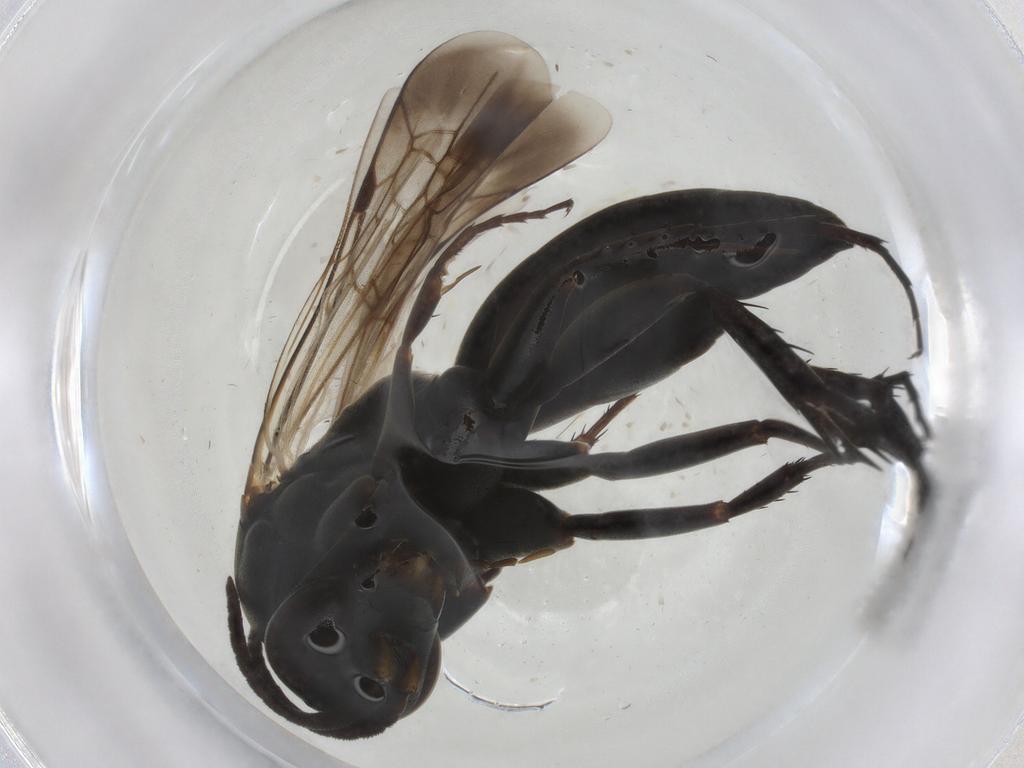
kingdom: Animalia
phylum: Arthropoda
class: Insecta
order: Hymenoptera
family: Pompilidae
